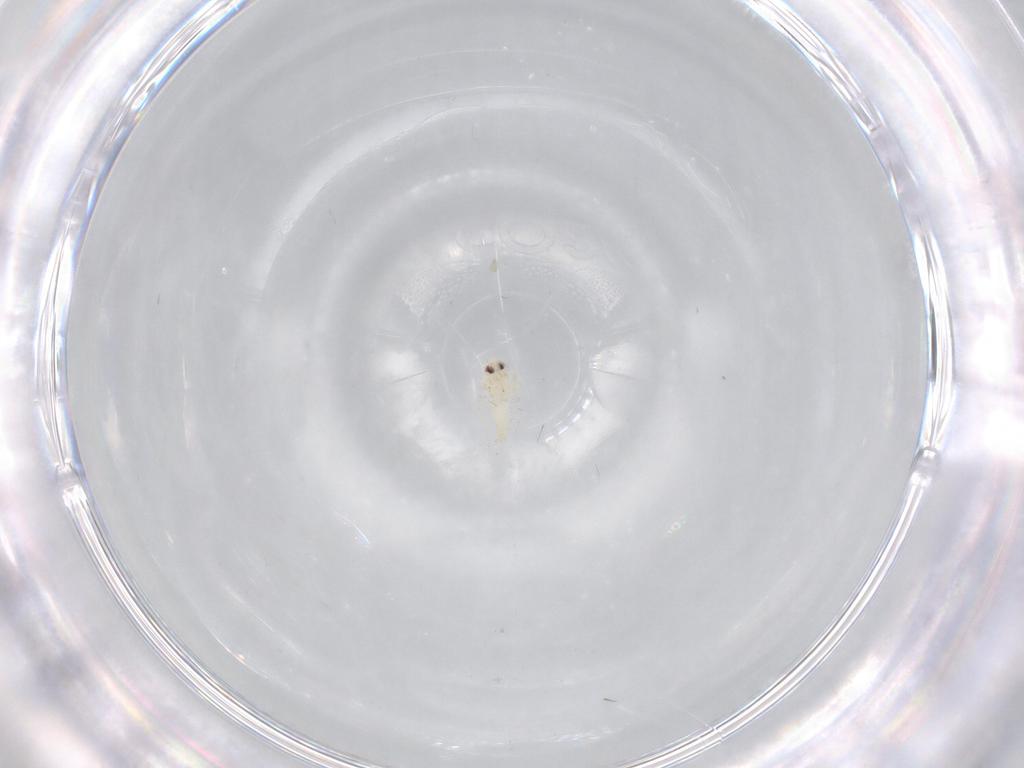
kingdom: Animalia
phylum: Arthropoda
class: Insecta
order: Hemiptera
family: Aleyrodidae
